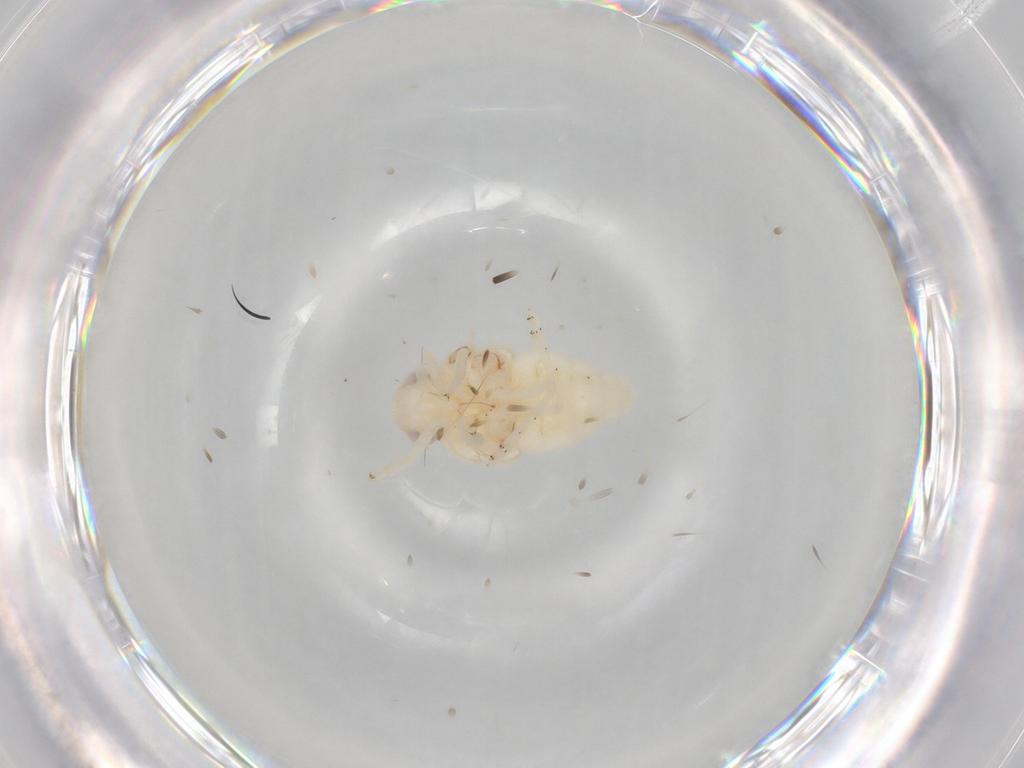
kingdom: Animalia
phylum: Arthropoda
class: Insecta
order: Hemiptera
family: Nogodinidae
